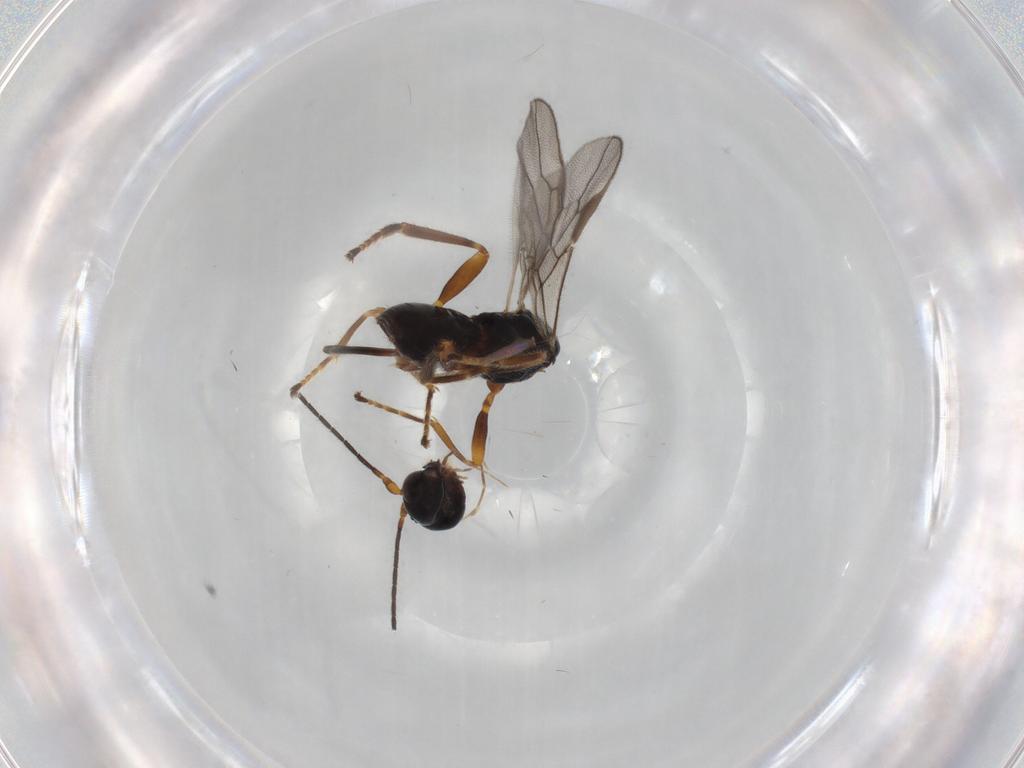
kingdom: Animalia
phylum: Arthropoda
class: Insecta
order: Hymenoptera
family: Braconidae
